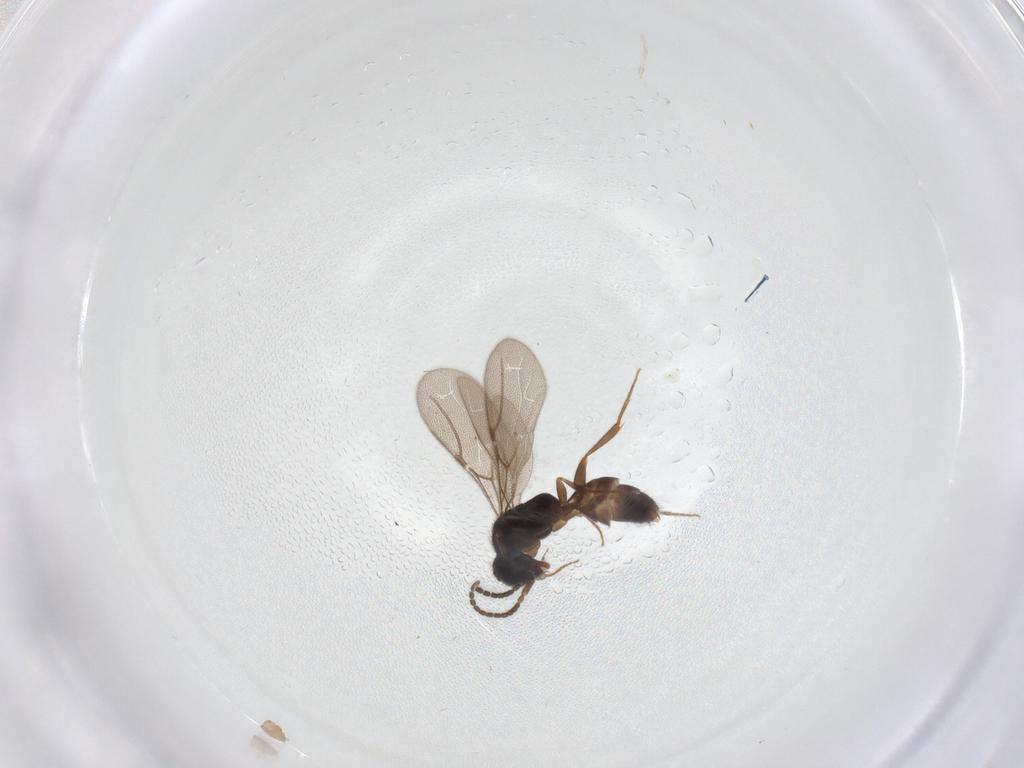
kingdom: Animalia
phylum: Arthropoda
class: Insecta
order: Hymenoptera
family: Bethylidae
